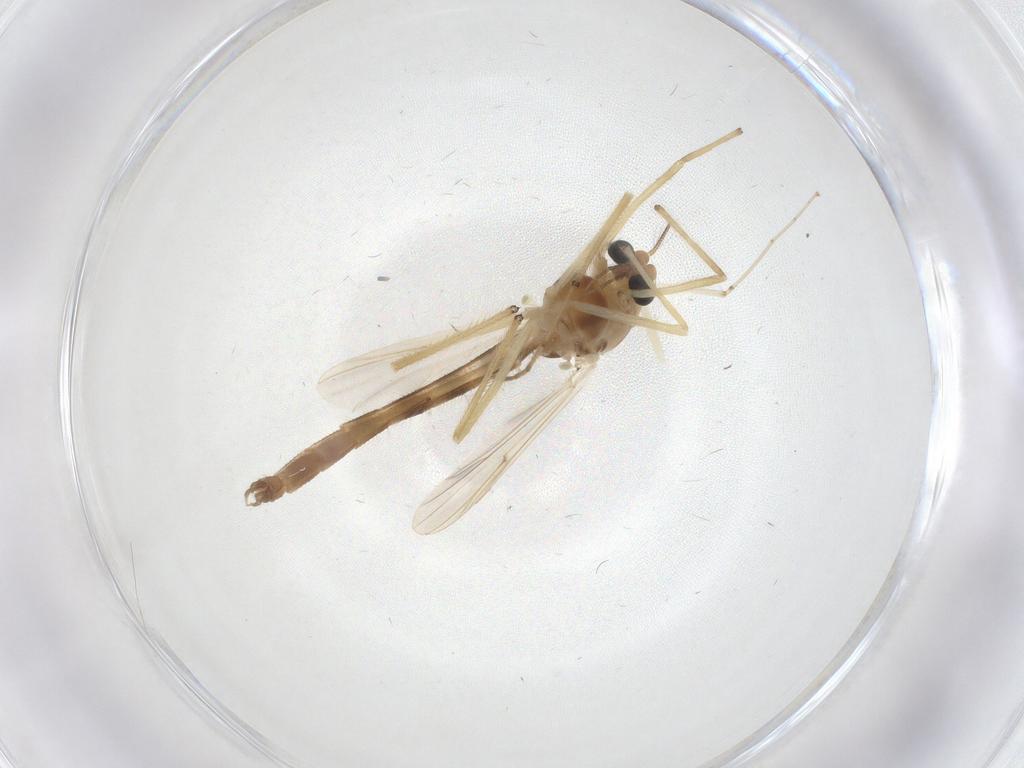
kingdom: Animalia
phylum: Arthropoda
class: Insecta
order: Diptera
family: Chironomidae
